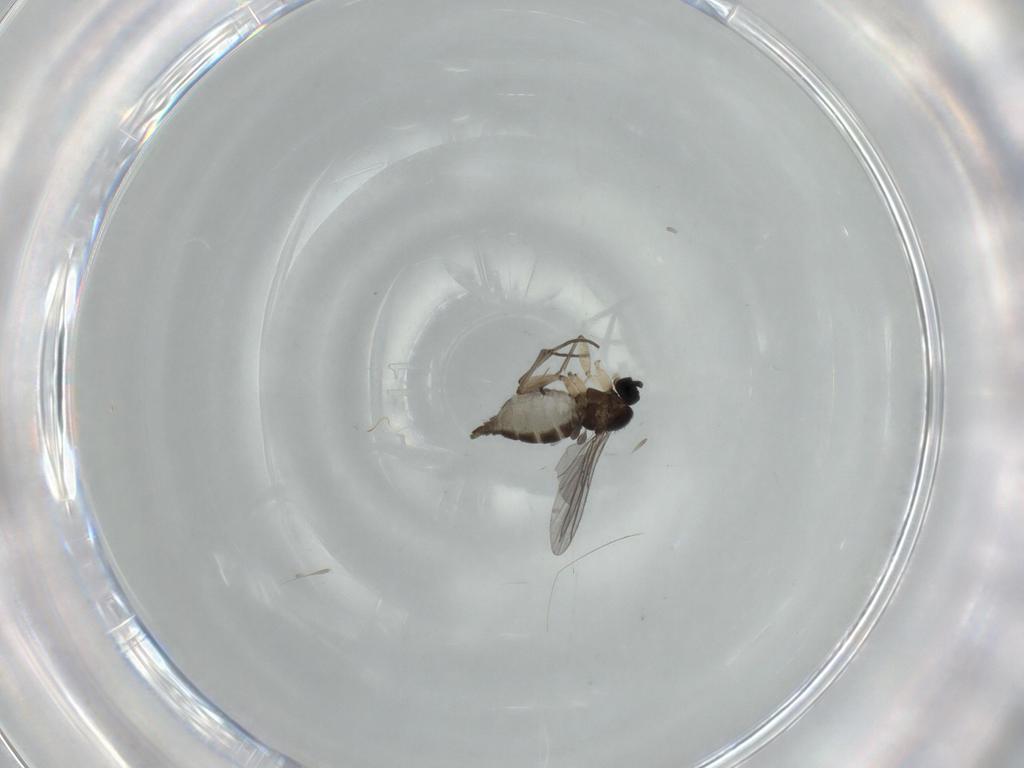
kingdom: Animalia
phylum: Arthropoda
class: Insecta
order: Diptera
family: Sciaridae
